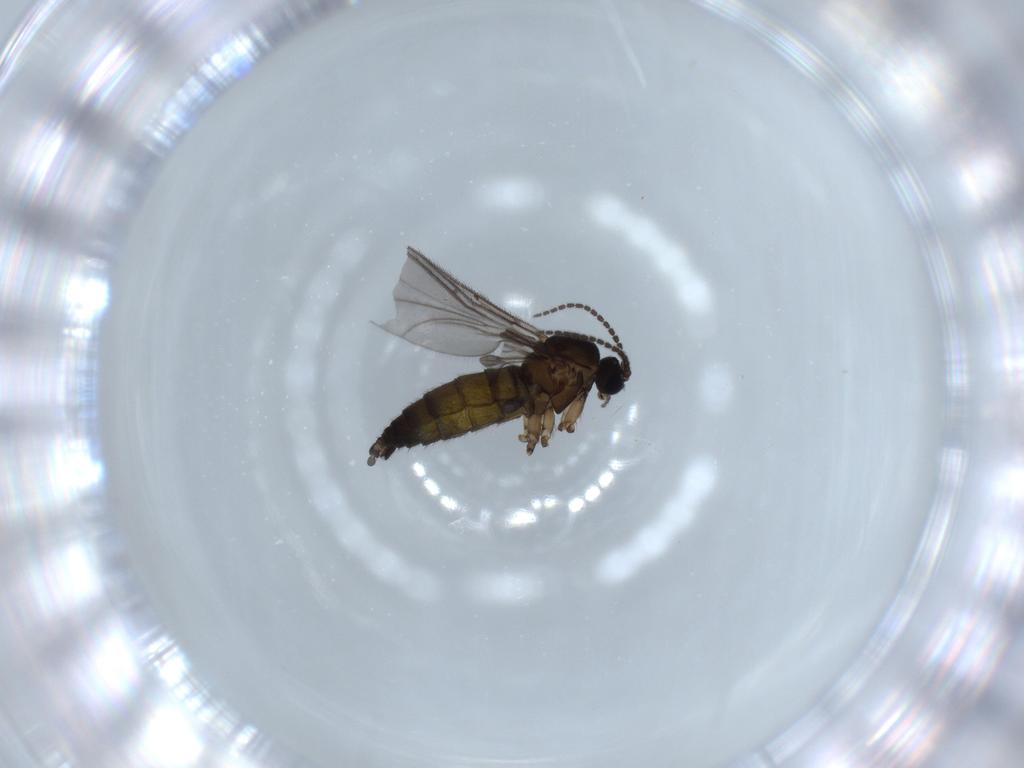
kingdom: Animalia
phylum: Arthropoda
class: Insecta
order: Diptera
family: Sciaridae
